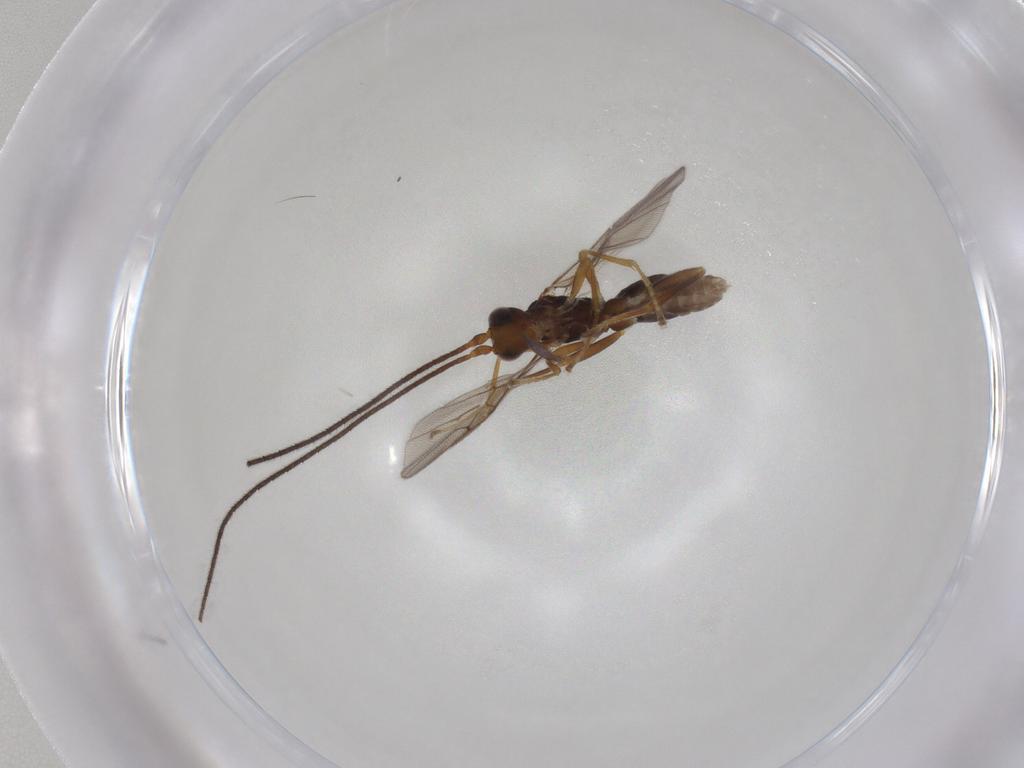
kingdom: Animalia
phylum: Arthropoda
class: Insecta
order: Hymenoptera
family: Braconidae
